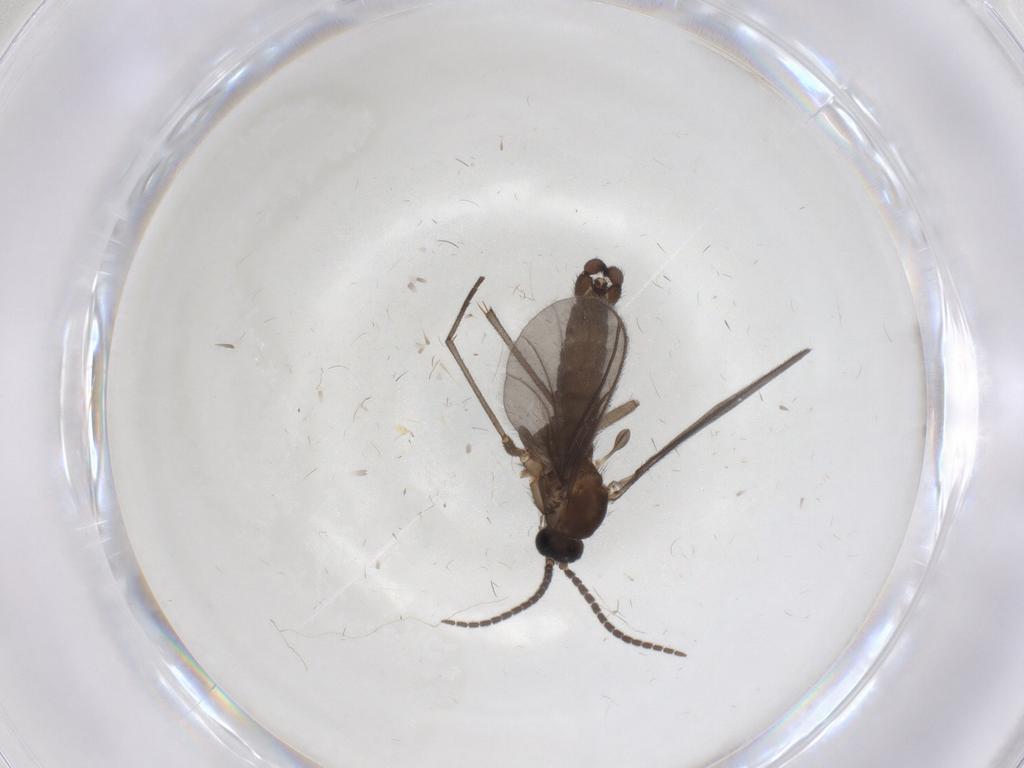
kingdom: Animalia
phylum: Arthropoda
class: Insecta
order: Diptera
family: Sciaridae
